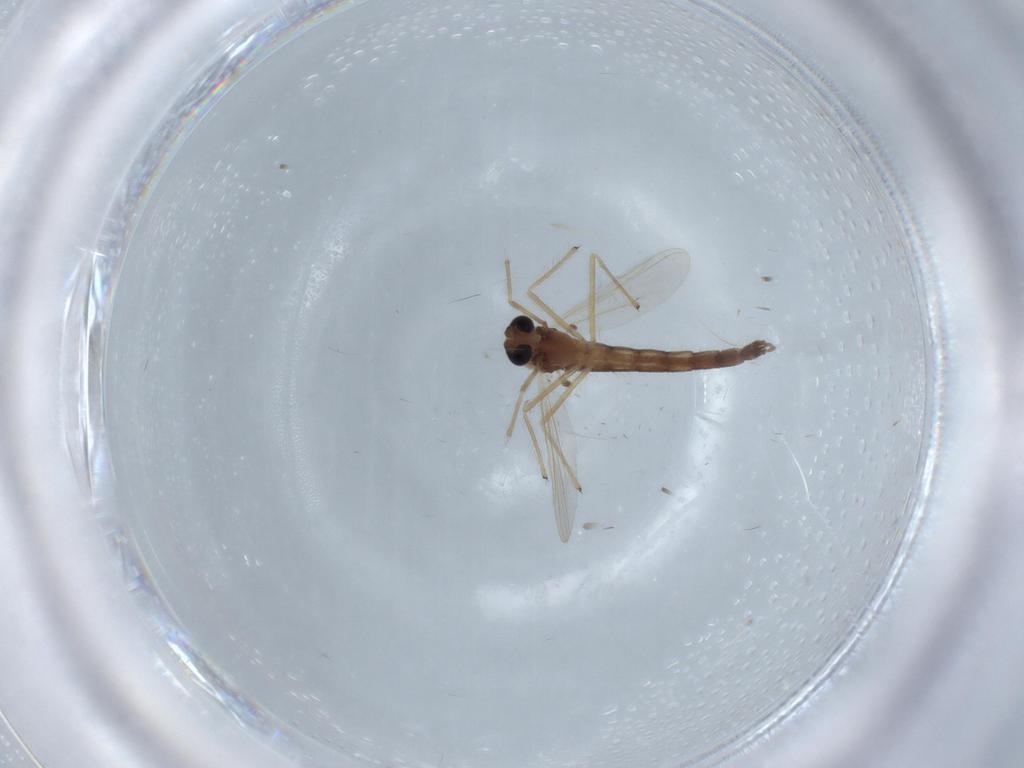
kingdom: Animalia
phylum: Arthropoda
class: Insecta
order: Diptera
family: Chironomidae
